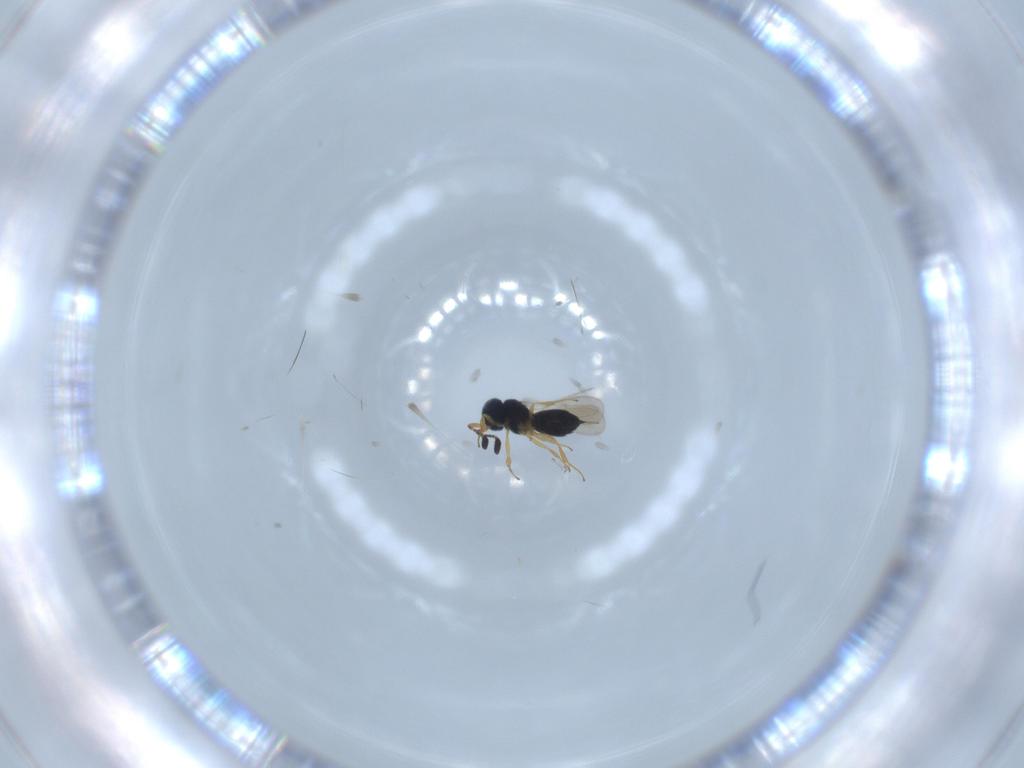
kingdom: Animalia
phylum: Arthropoda
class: Insecta
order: Hymenoptera
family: Scelionidae
